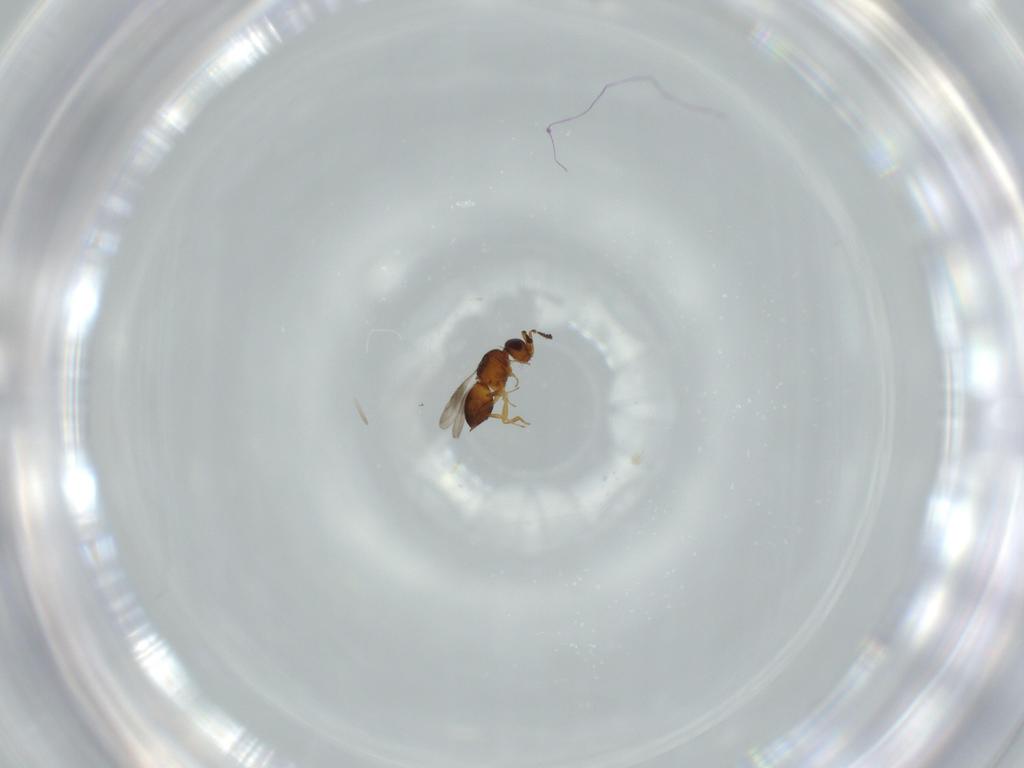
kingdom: Animalia
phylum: Arthropoda
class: Insecta
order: Hymenoptera
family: Ceraphronidae
